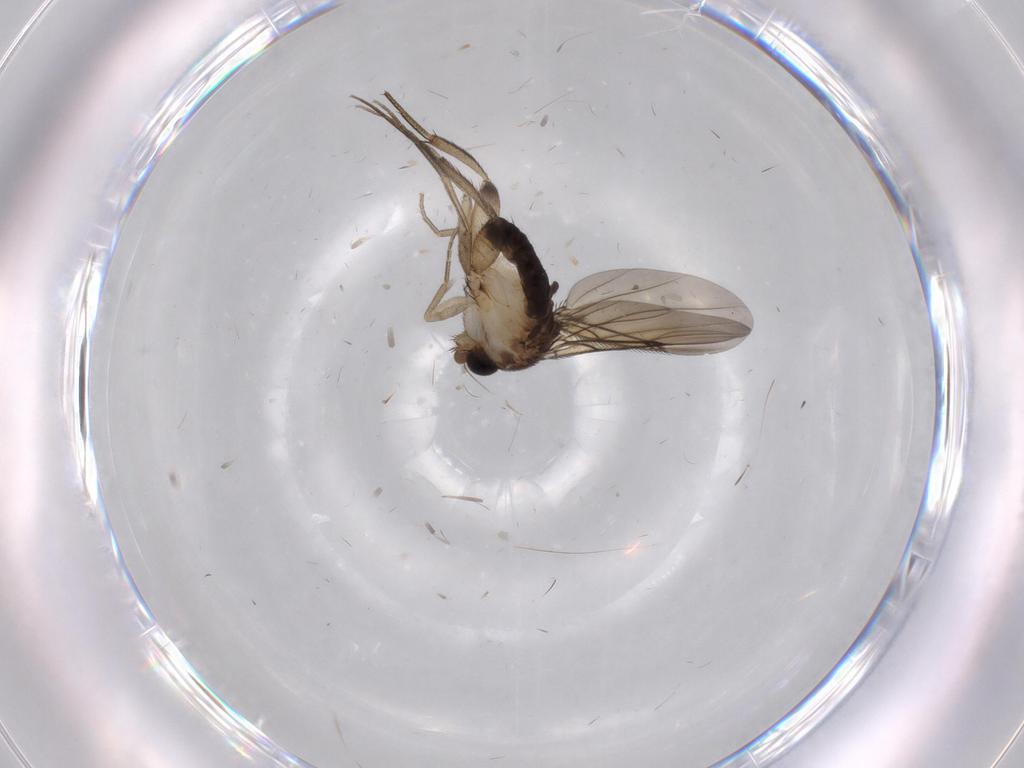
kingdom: Animalia
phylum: Arthropoda
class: Insecta
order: Diptera
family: Phoridae
